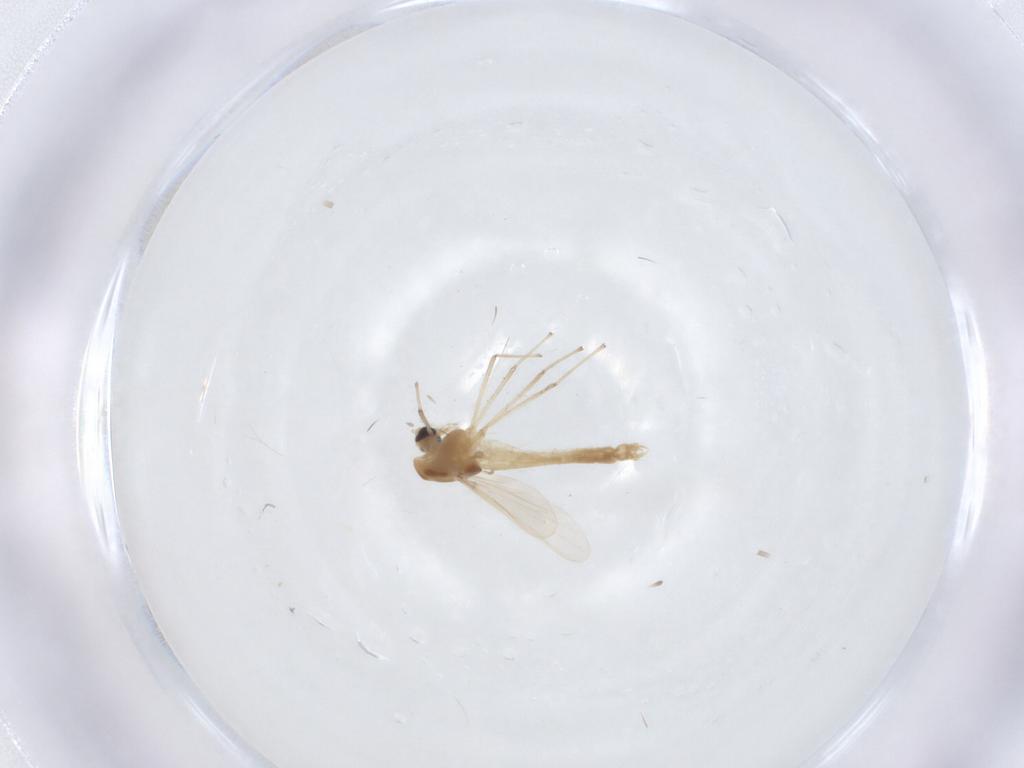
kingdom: Animalia
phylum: Arthropoda
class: Insecta
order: Diptera
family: Chironomidae
